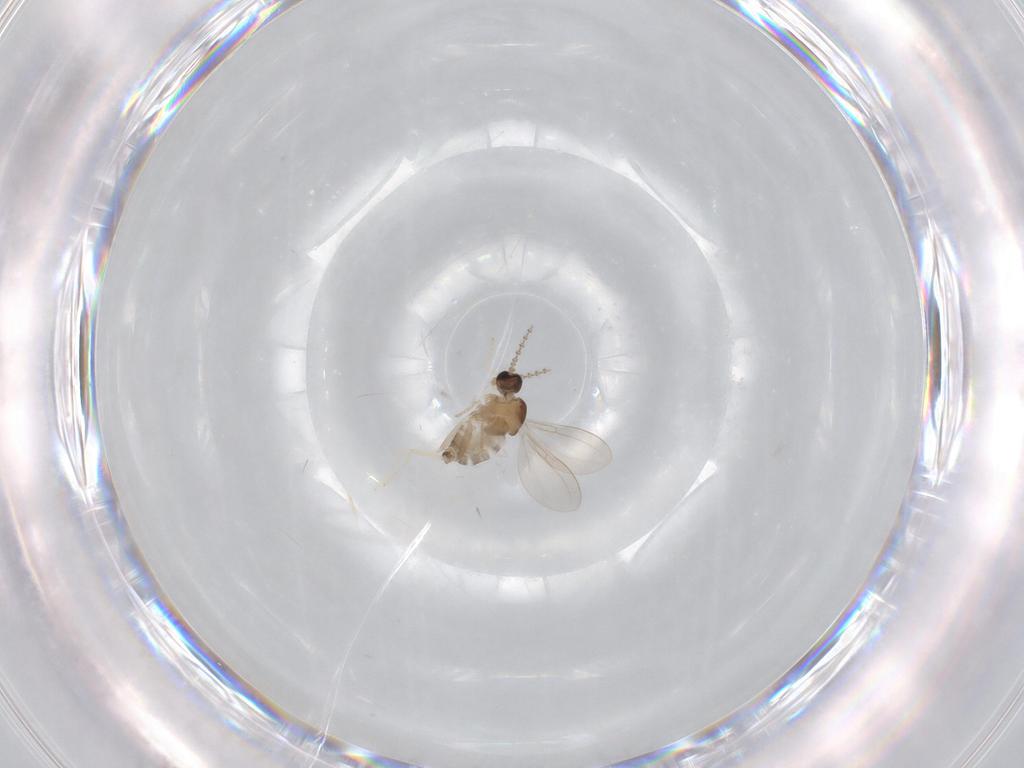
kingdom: Animalia
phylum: Arthropoda
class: Insecta
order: Diptera
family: Cecidomyiidae
